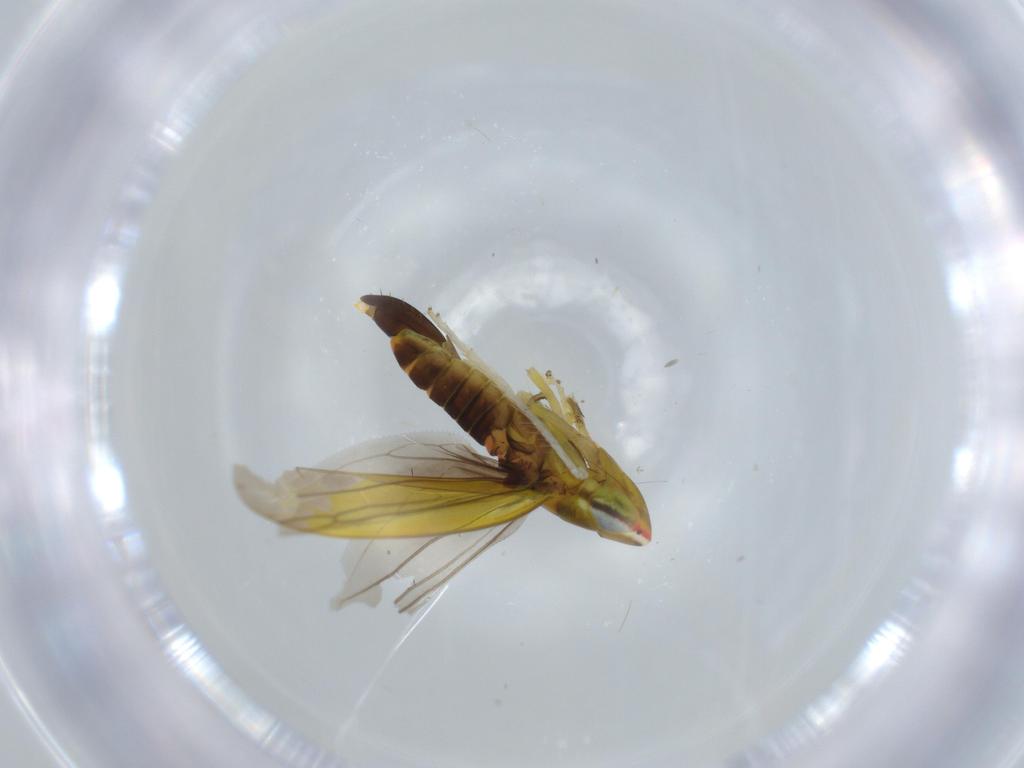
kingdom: Animalia
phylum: Arthropoda
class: Insecta
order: Hemiptera
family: Cicadellidae
